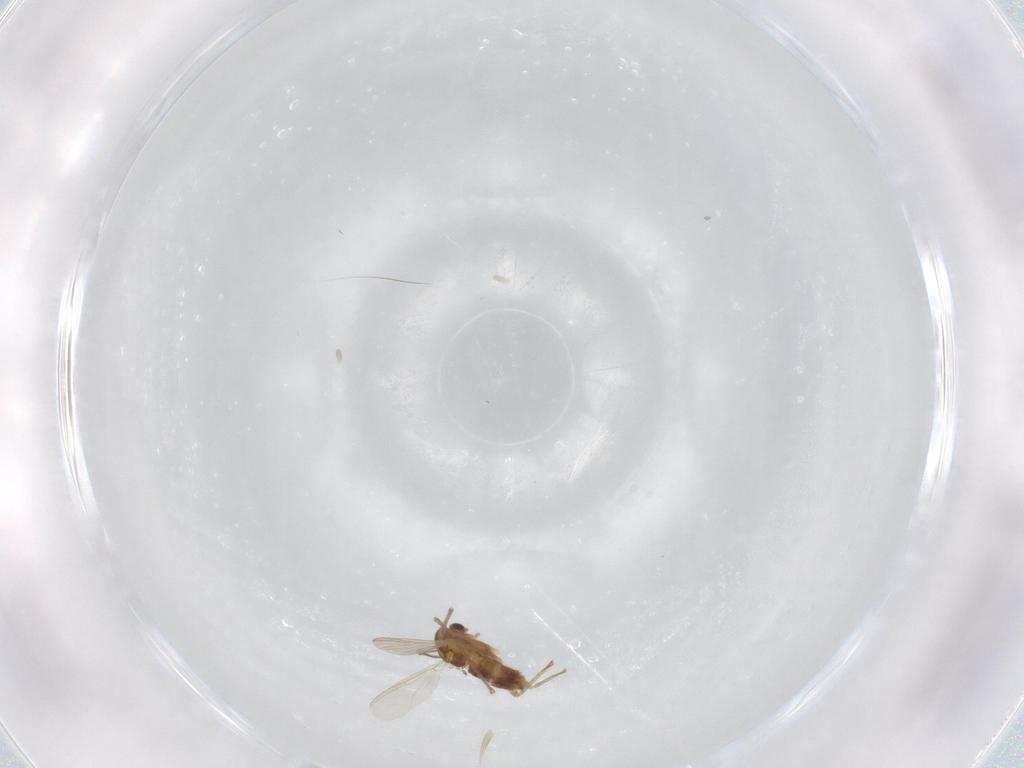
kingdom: Animalia
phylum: Arthropoda
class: Insecta
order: Diptera
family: Chironomidae
